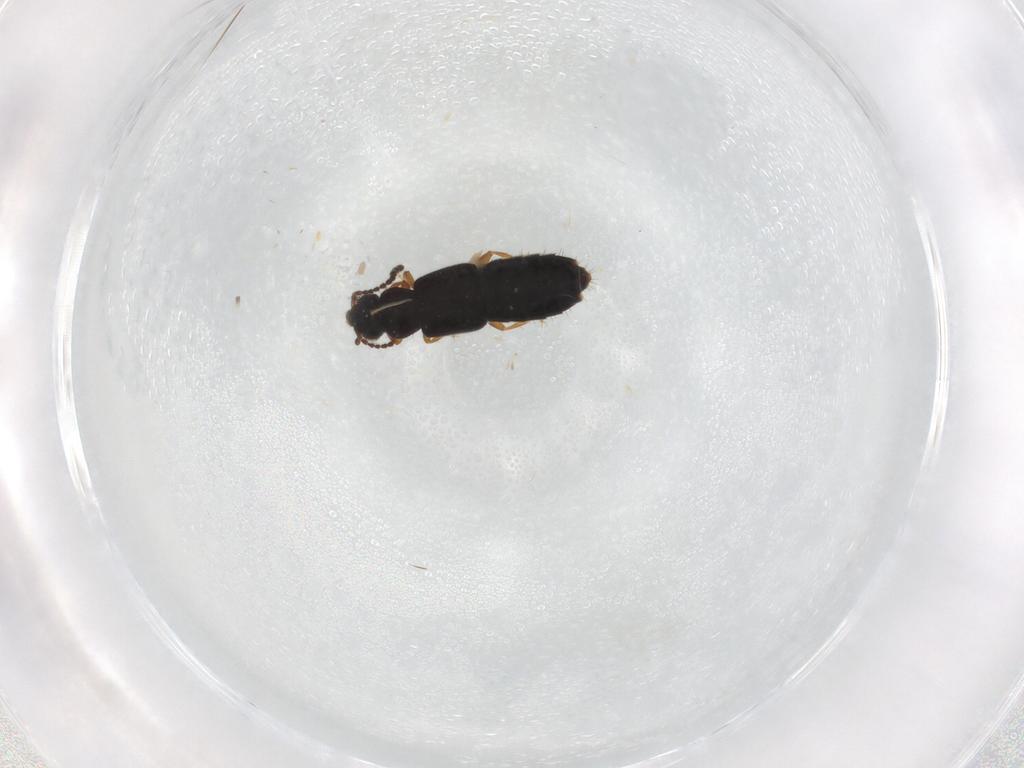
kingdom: Animalia
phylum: Arthropoda
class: Insecta
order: Coleoptera
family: Staphylinidae
